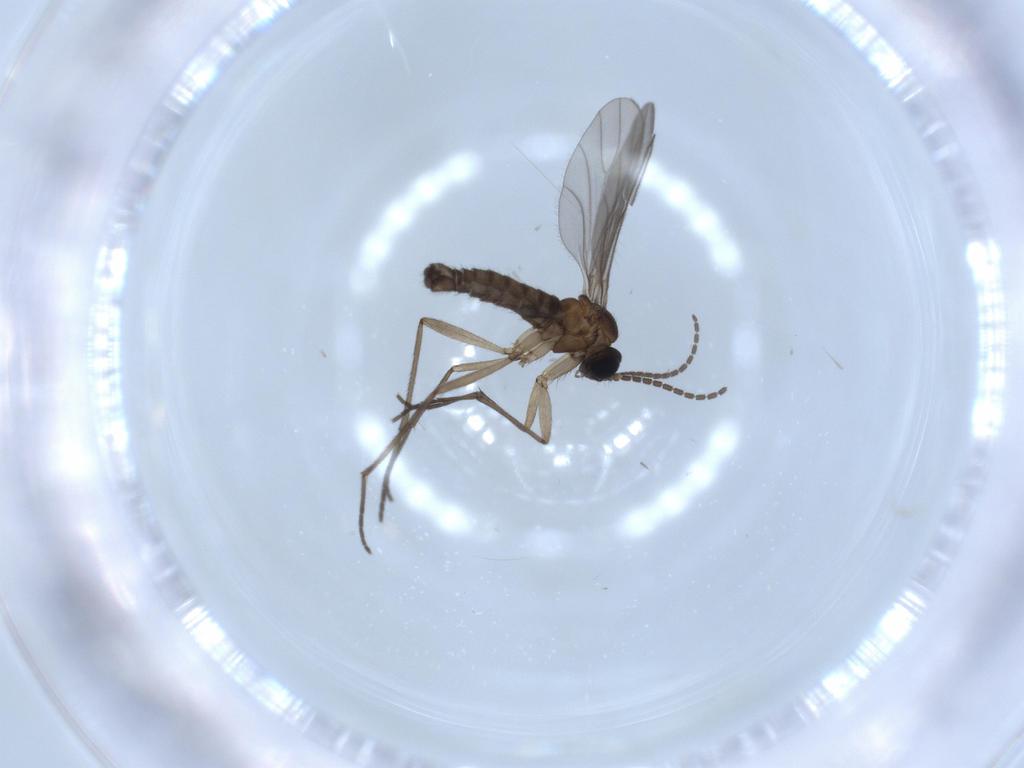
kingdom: Animalia
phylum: Arthropoda
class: Insecta
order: Diptera
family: Sciaridae
